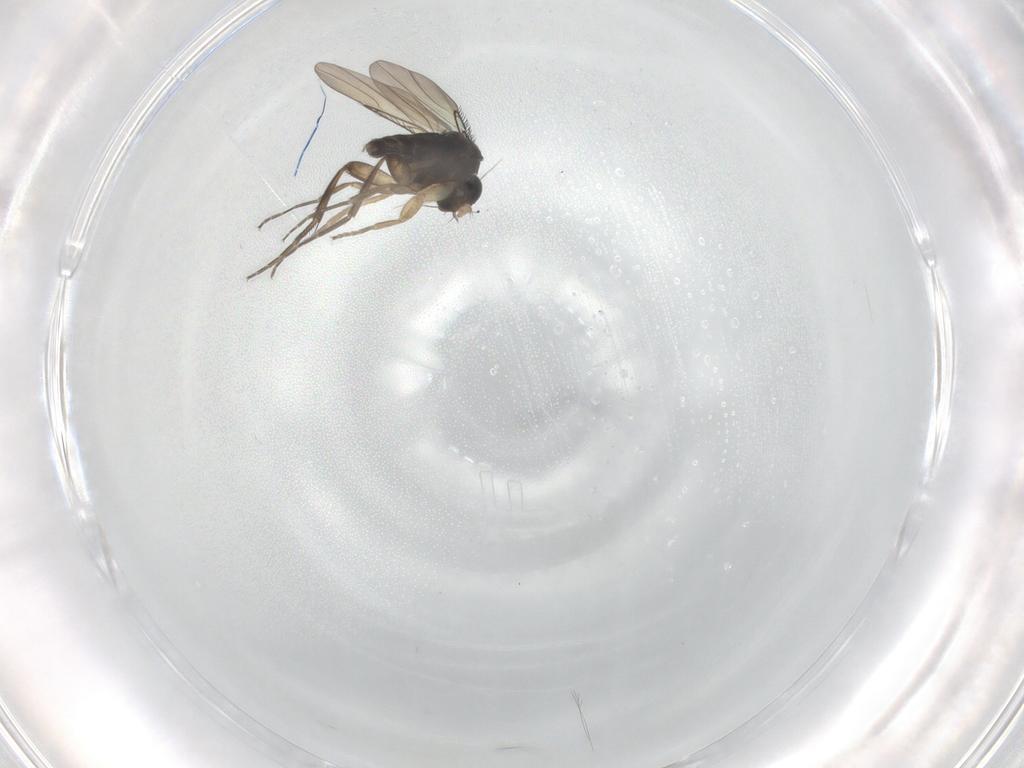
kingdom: Animalia
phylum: Arthropoda
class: Insecta
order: Diptera
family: Phoridae
